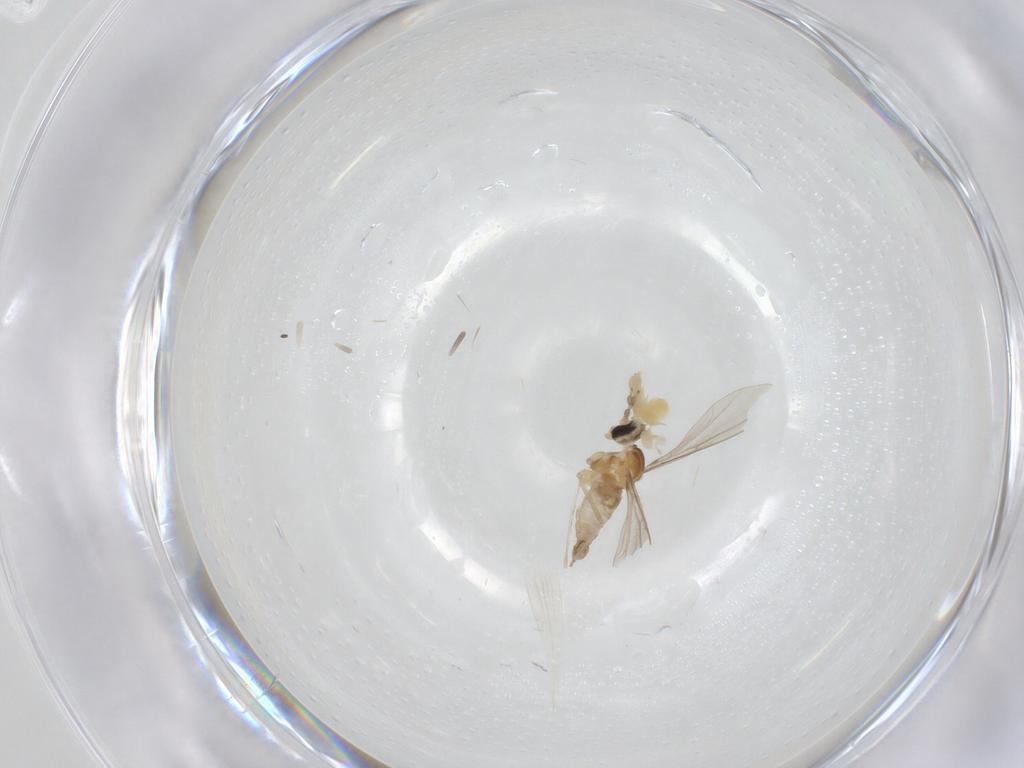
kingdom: Animalia
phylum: Arthropoda
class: Insecta
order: Diptera
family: Cecidomyiidae
